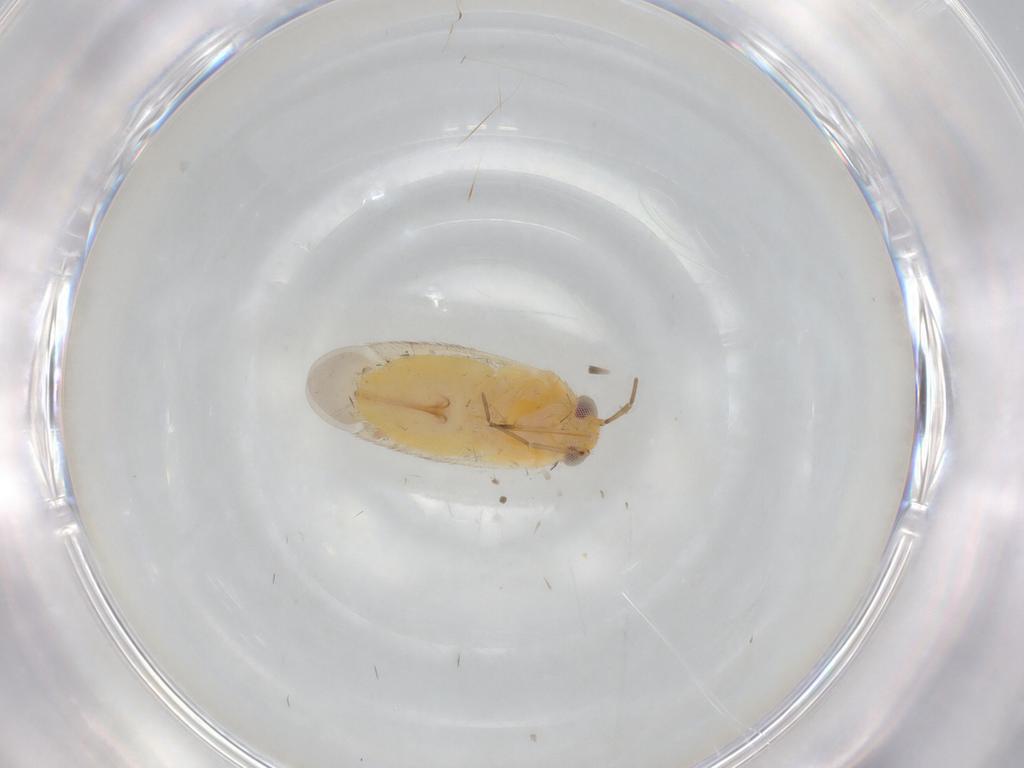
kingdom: Animalia
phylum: Arthropoda
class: Insecta
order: Hemiptera
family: Miridae
